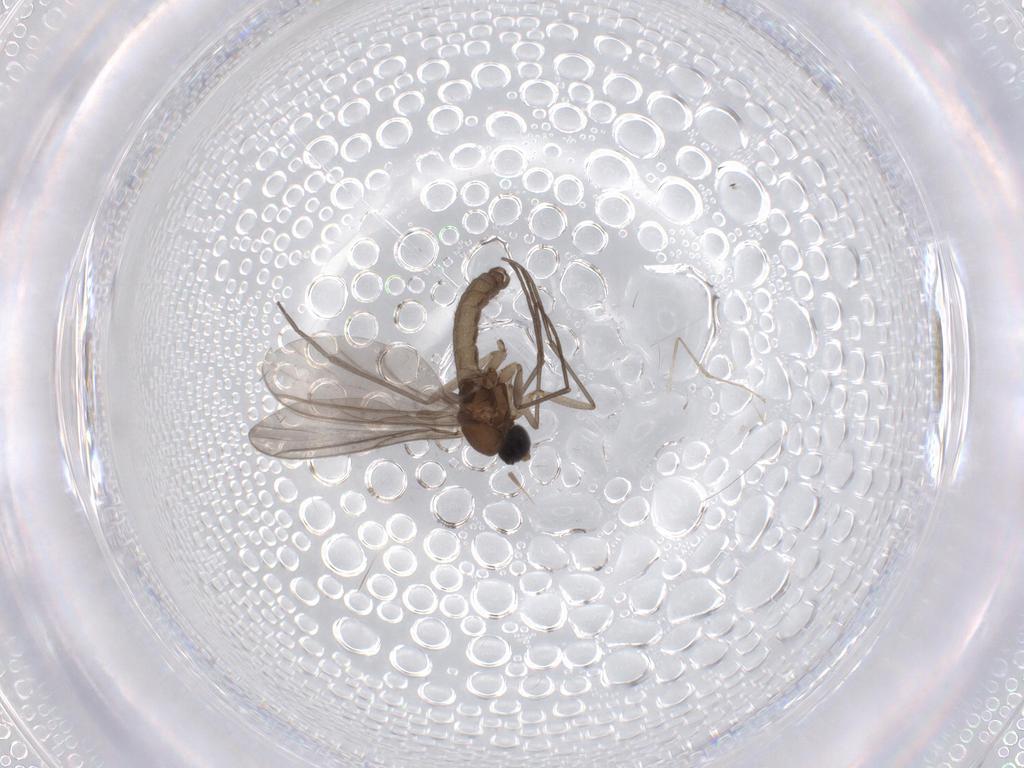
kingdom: Animalia
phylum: Arthropoda
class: Insecta
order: Diptera
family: Sciaridae
